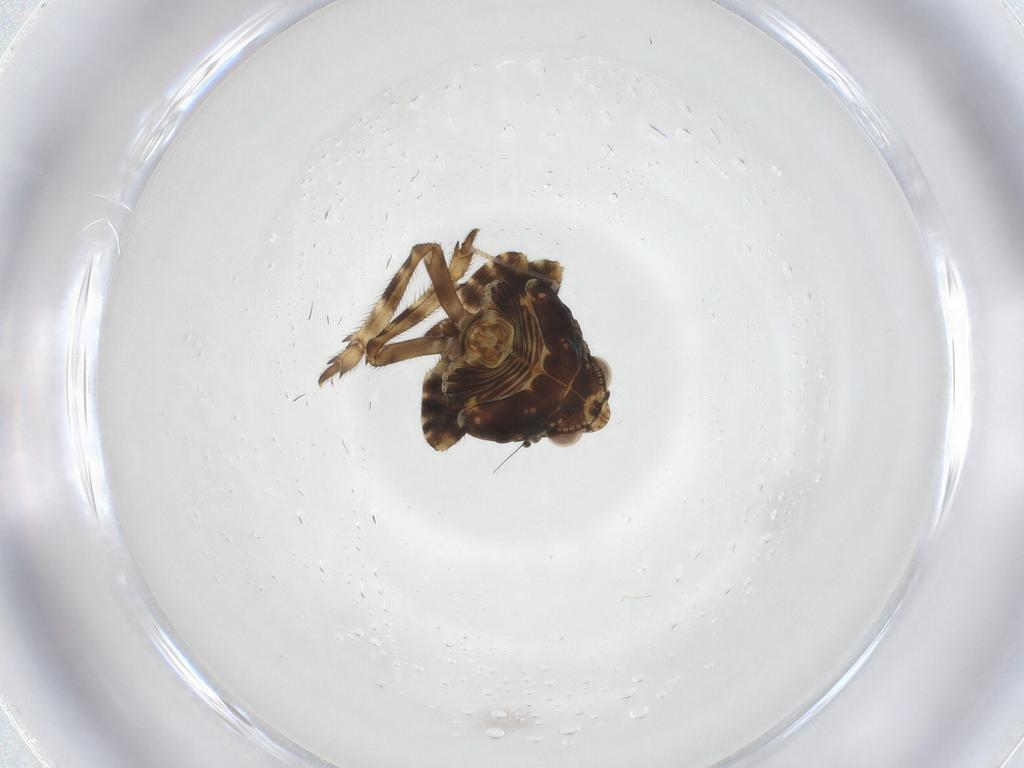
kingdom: Animalia
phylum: Arthropoda
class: Insecta
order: Hemiptera
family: Eurybrachidae
